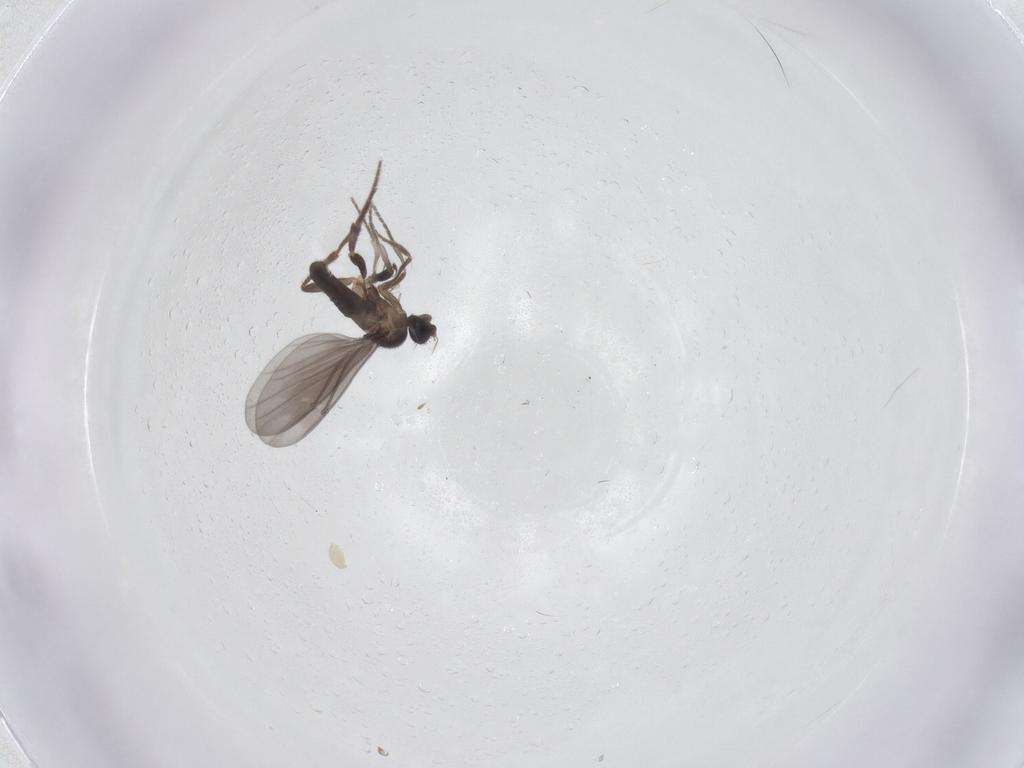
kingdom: Animalia
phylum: Arthropoda
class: Insecta
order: Diptera
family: Phoridae
